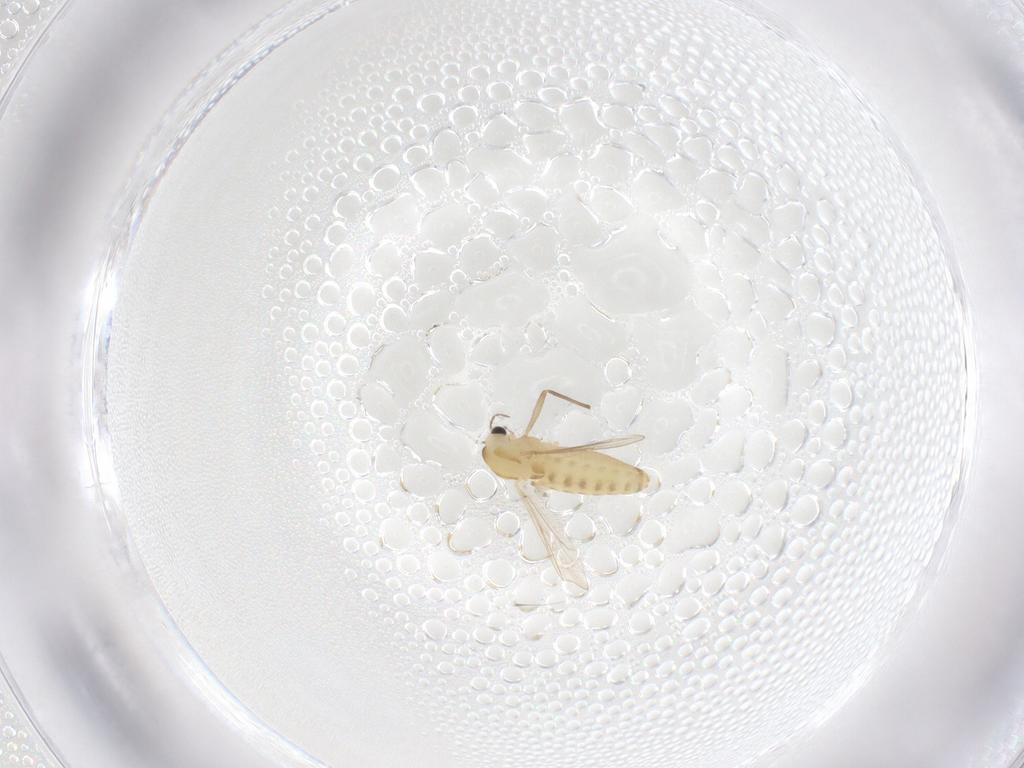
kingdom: Animalia
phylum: Arthropoda
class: Insecta
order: Diptera
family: Chironomidae
